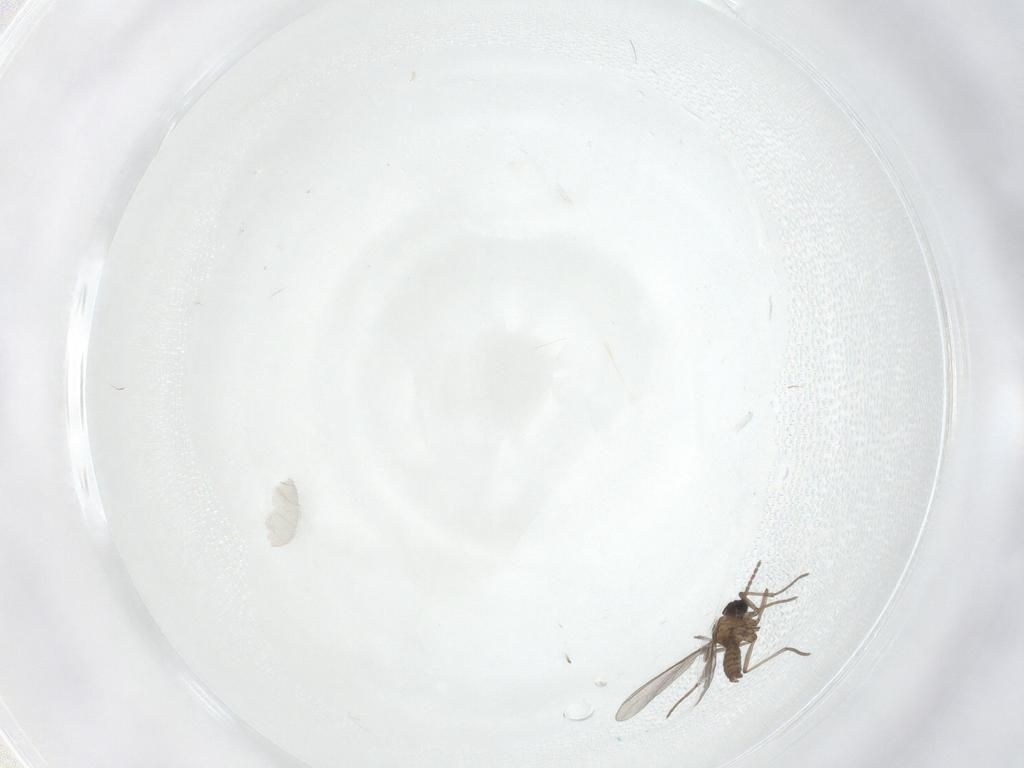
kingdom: Animalia
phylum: Arthropoda
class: Insecta
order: Diptera
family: Sciaridae
